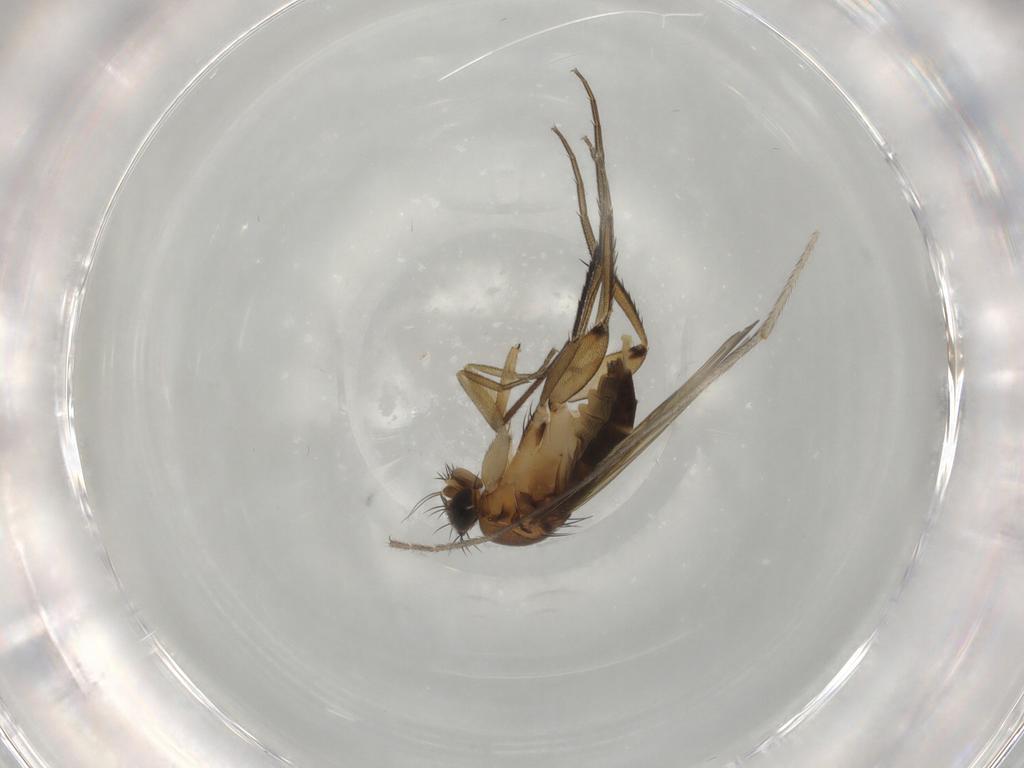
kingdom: Animalia
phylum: Arthropoda
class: Insecta
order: Diptera
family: Phoridae
